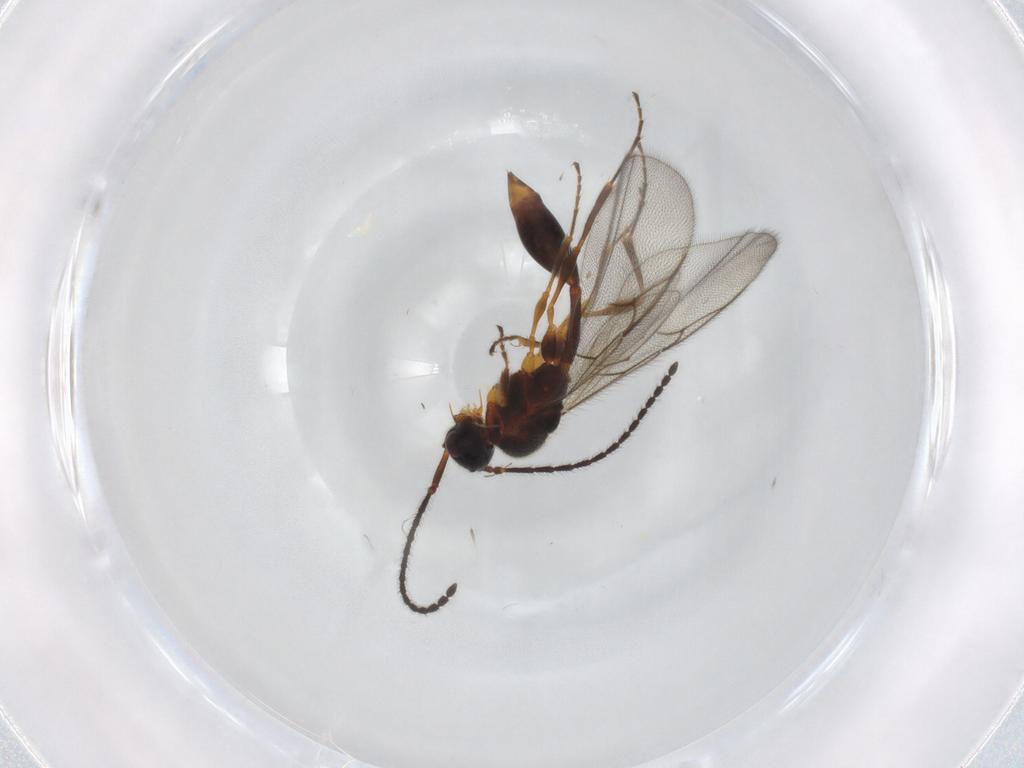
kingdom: Animalia
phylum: Arthropoda
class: Insecta
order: Hymenoptera
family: Diapriidae
